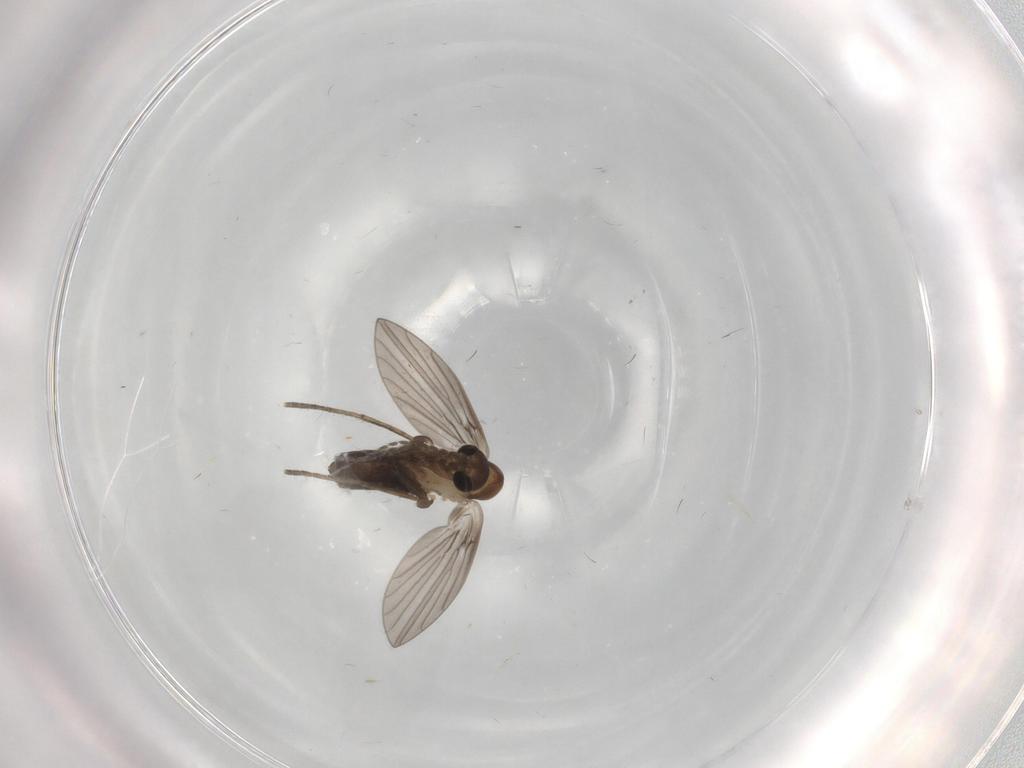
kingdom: Animalia
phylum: Arthropoda
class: Insecta
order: Diptera
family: Psychodidae
